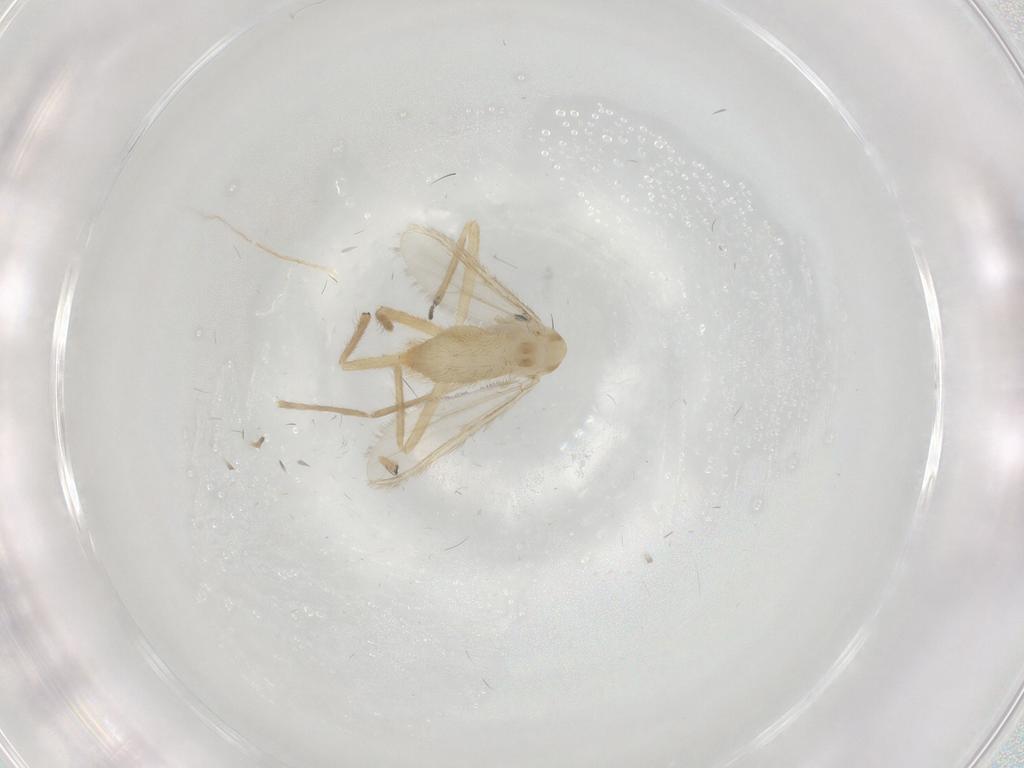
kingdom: Animalia
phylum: Arthropoda
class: Insecta
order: Diptera
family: Chironomidae
